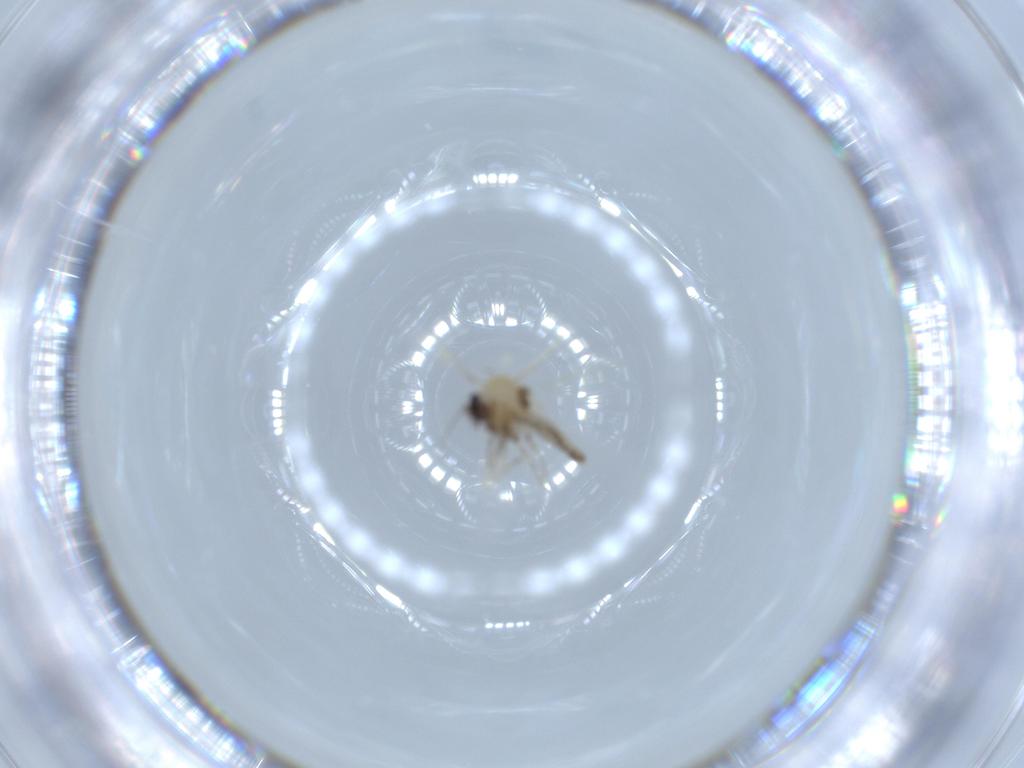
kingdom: Animalia
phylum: Arthropoda
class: Insecta
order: Diptera
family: Ceratopogonidae
